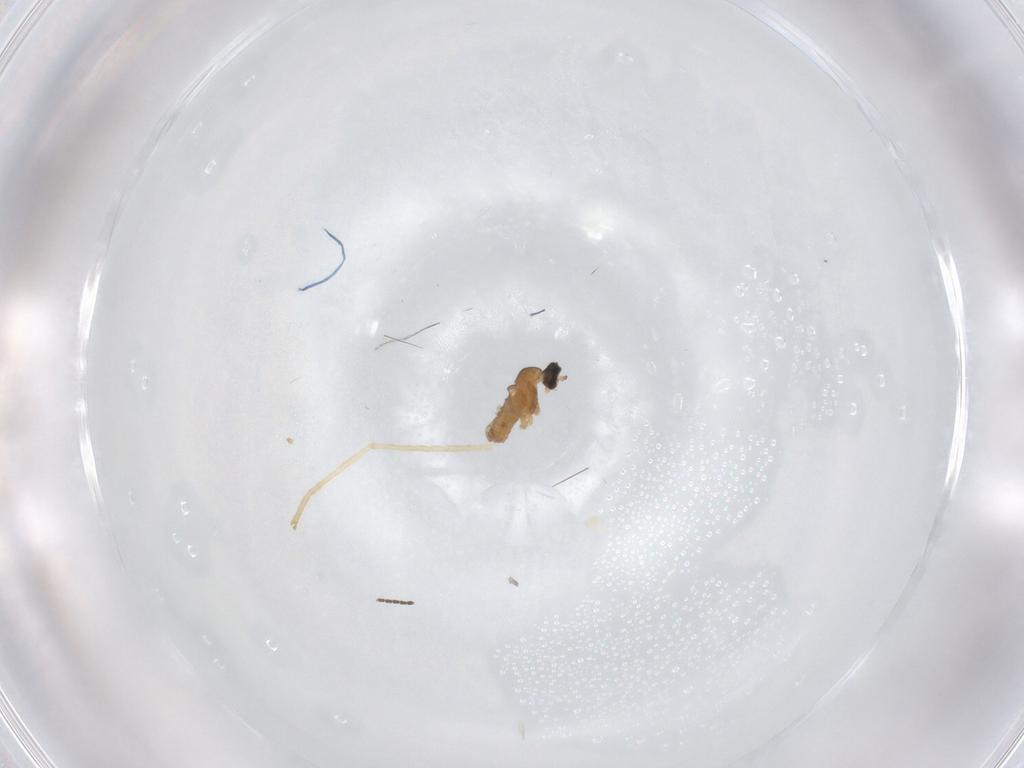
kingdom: Animalia
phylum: Arthropoda
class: Insecta
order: Diptera
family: Cecidomyiidae
